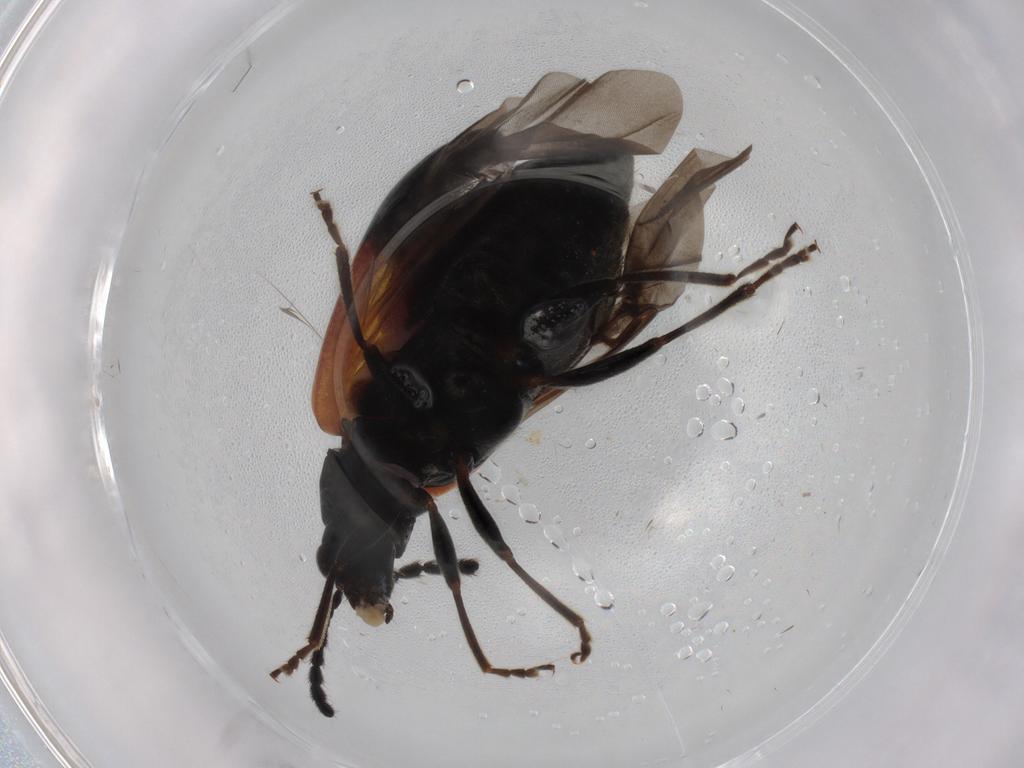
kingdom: Animalia
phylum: Arthropoda
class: Insecta
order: Coleoptera
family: Chrysomelidae
